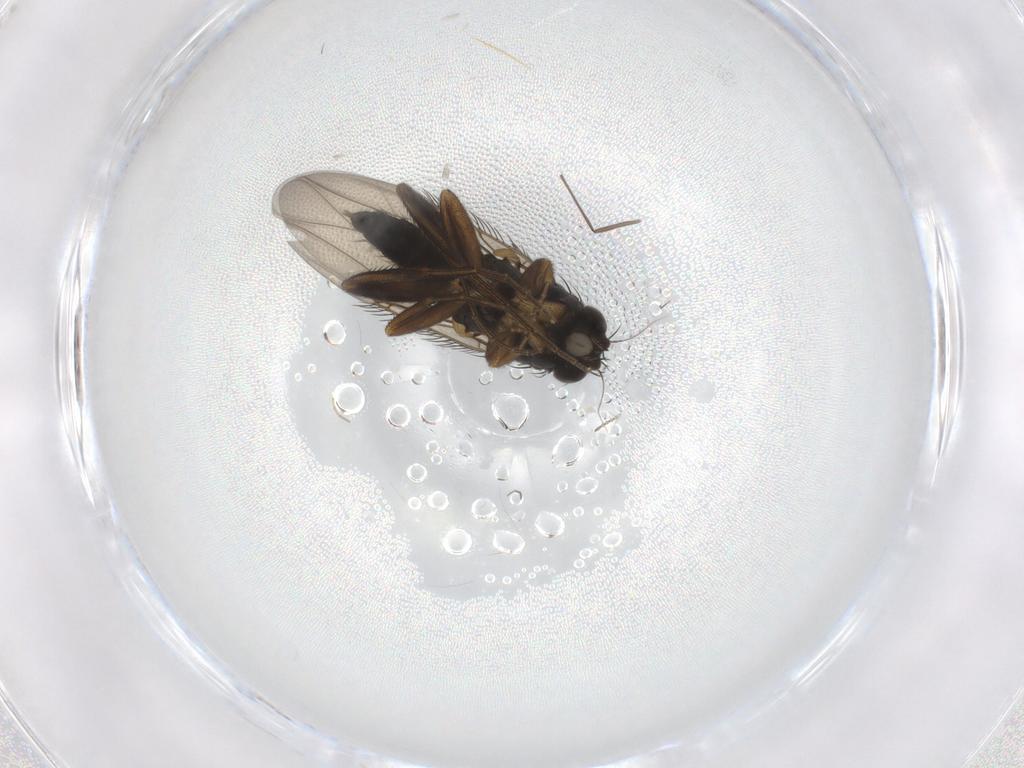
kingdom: Animalia
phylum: Arthropoda
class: Insecta
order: Diptera
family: Phoridae
